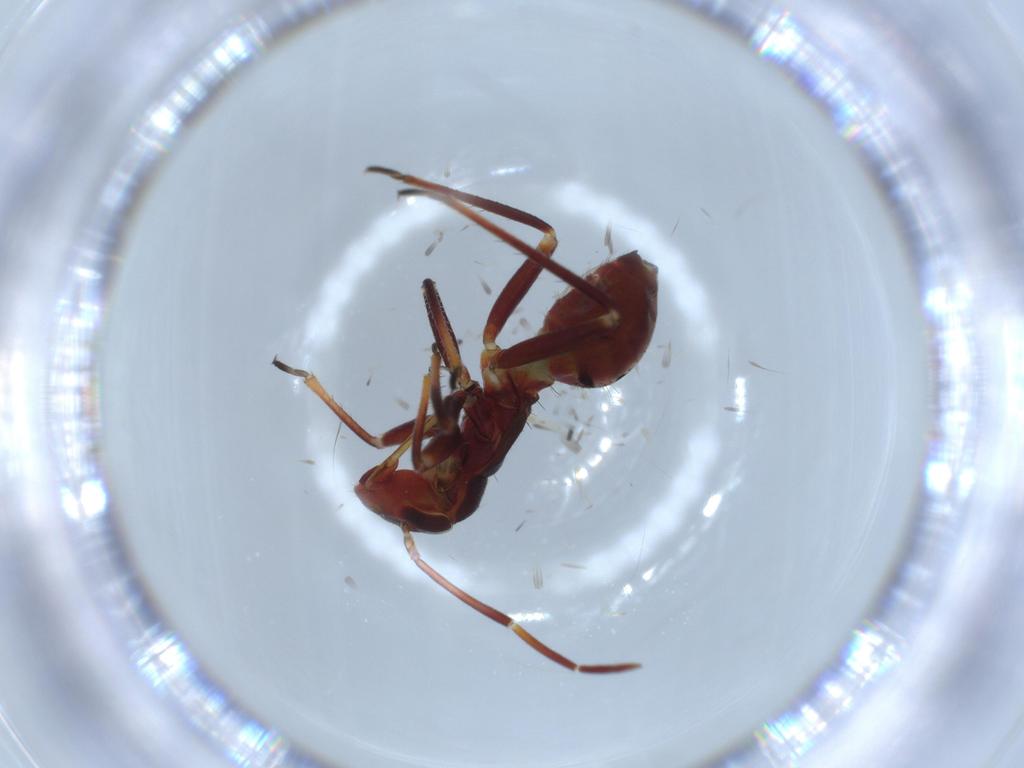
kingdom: Animalia
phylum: Arthropoda
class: Insecta
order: Hemiptera
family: Miridae
